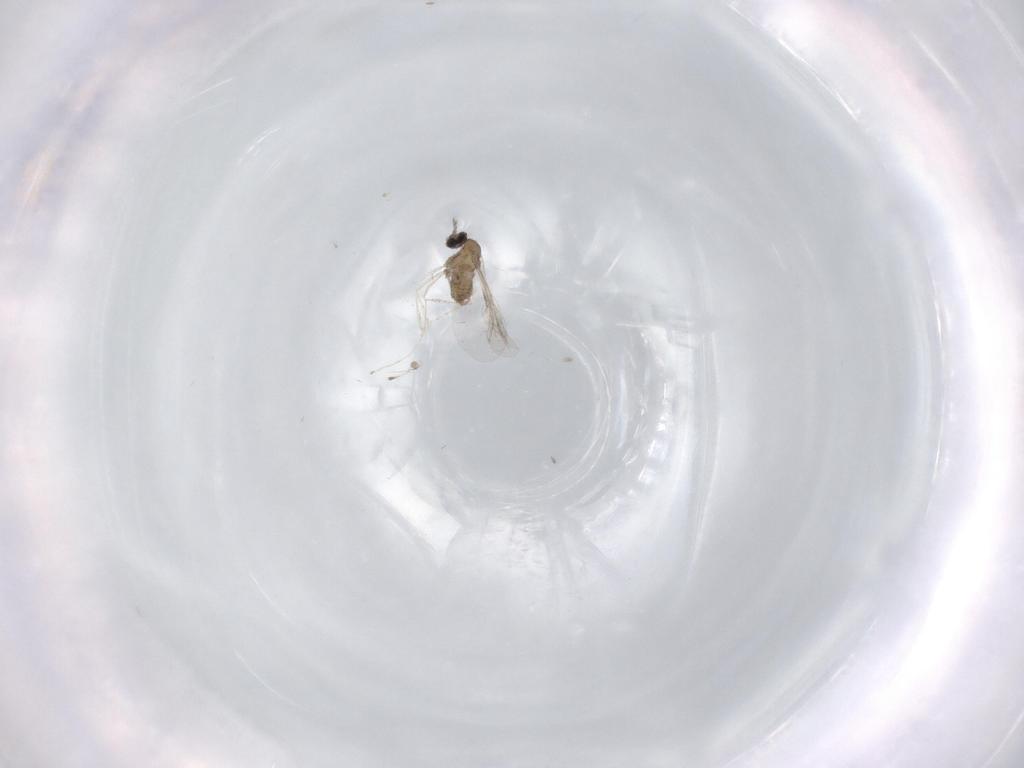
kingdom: Animalia
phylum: Arthropoda
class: Insecta
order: Diptera
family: Cecidomyiidae
